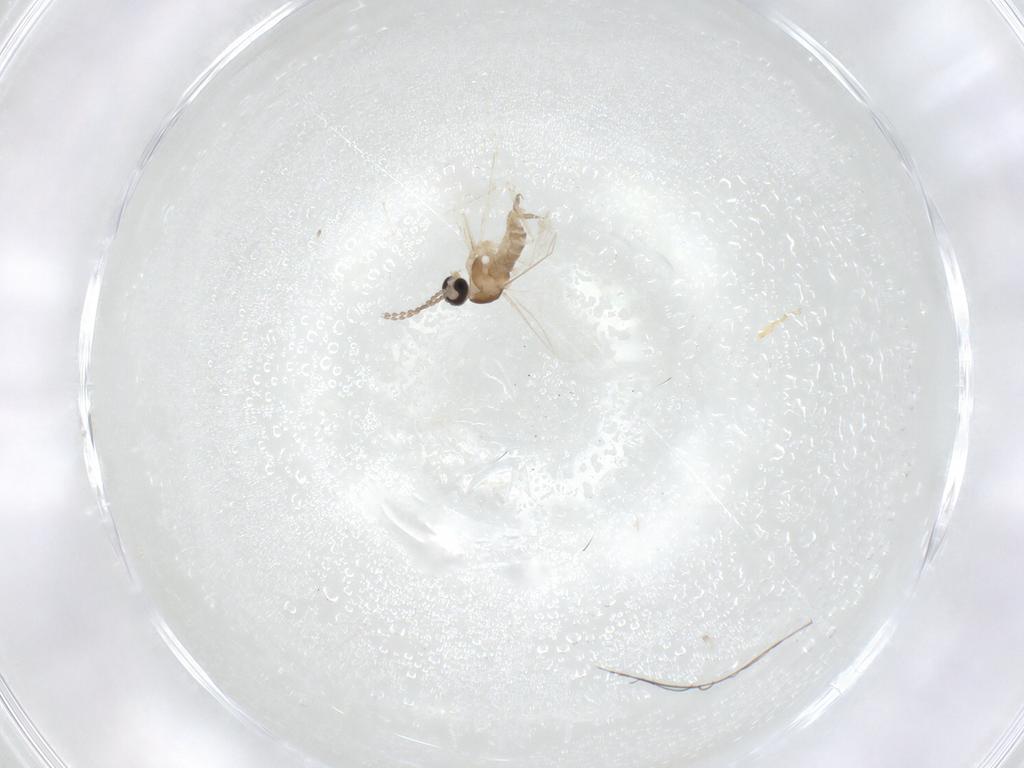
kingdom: Animalia
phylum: Arthropoda
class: Insecta
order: Diptera
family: Cecidomyiidae
